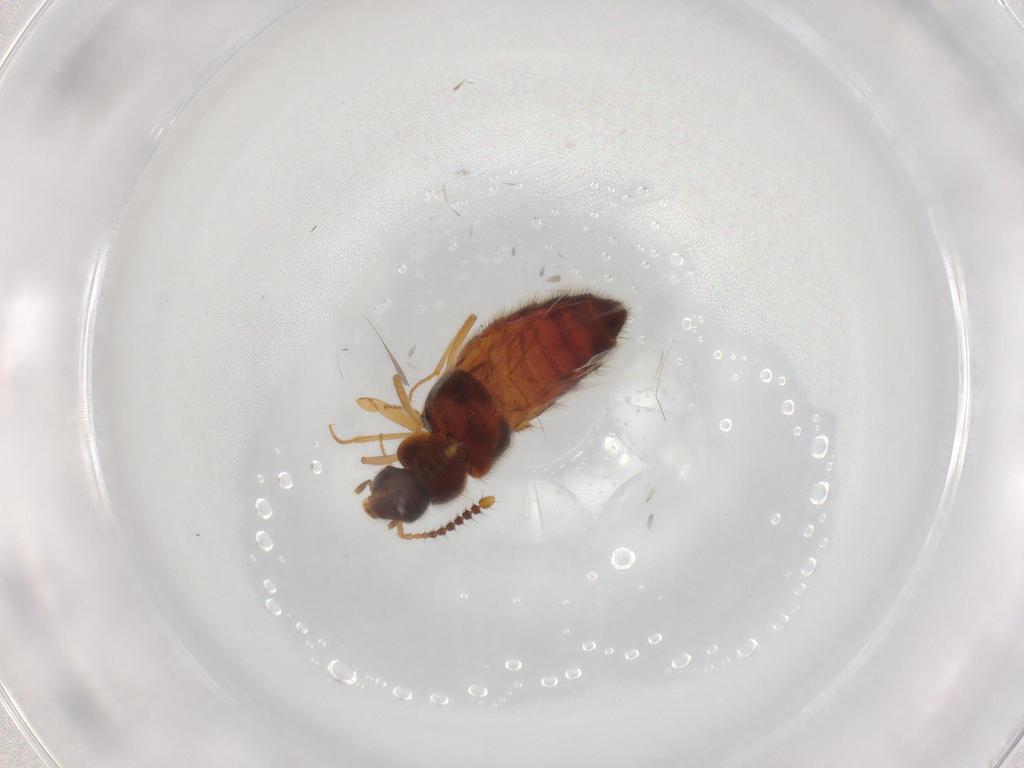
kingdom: Animalia
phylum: Arthropoda
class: Insecta
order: Coleoptera
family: Staphylinidae
